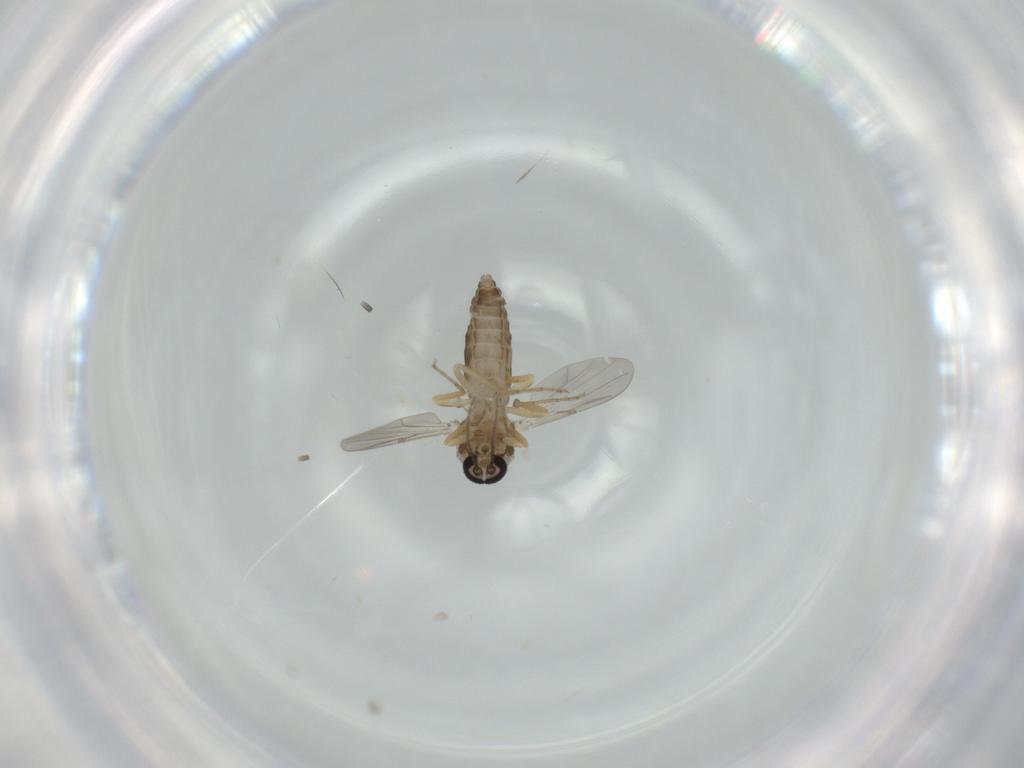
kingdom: Animalia
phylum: Arthropoda
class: Insecta
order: Diptera
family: Ceratopogonidae
